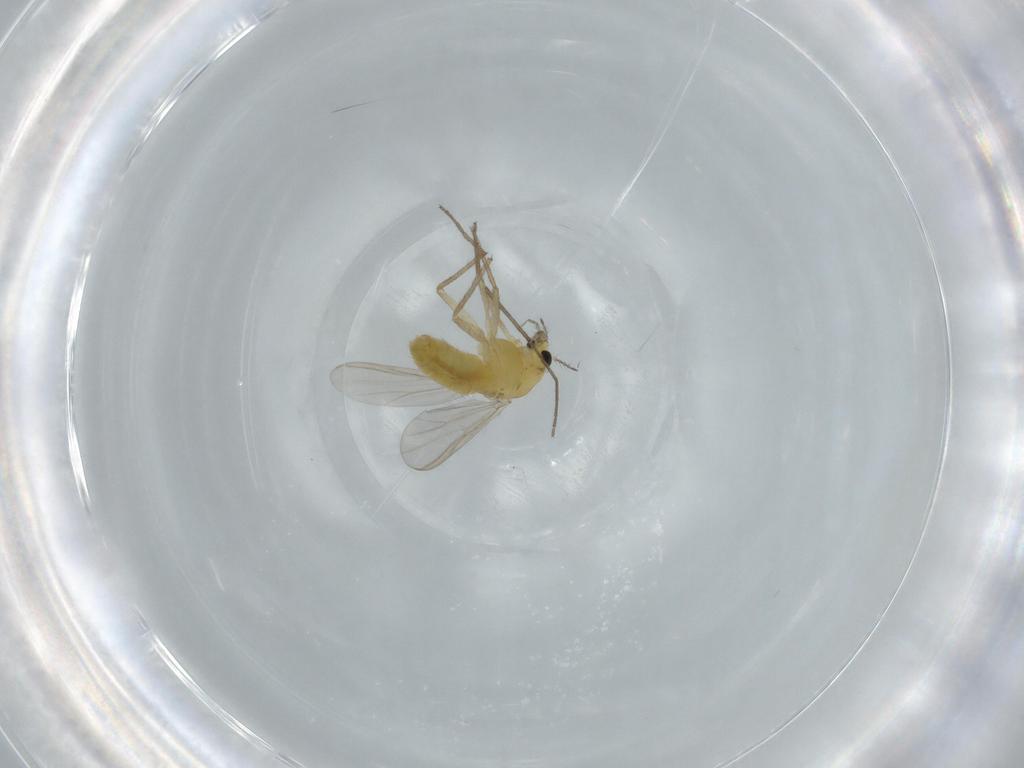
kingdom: Animalia
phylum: Arthropoda
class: Insecta
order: Diptera
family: Chironomidae
